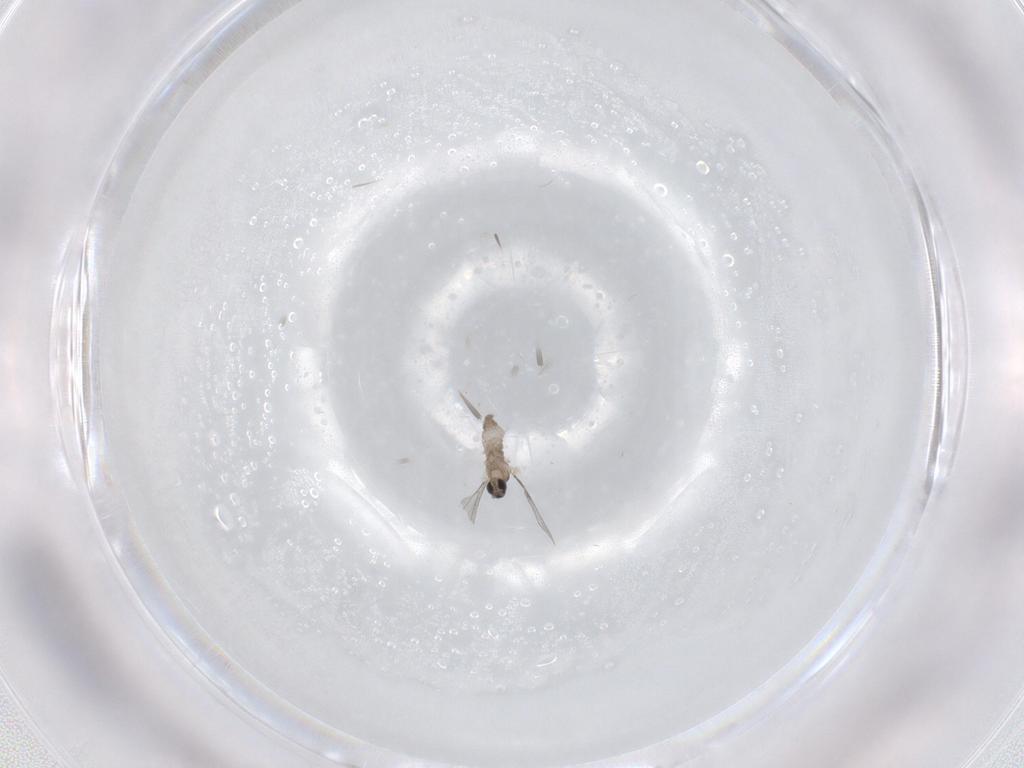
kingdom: Animalia
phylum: Arthropoda
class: Insecta
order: Diptera
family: Cecidomyiidae
